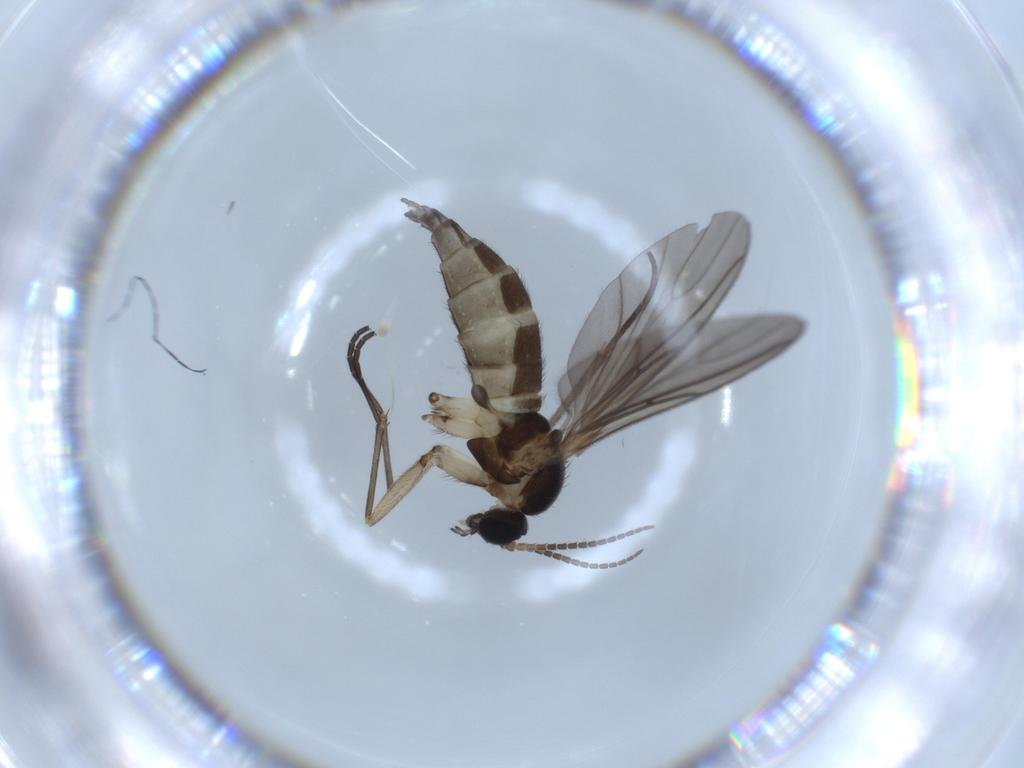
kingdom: Animalia
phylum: Arthropoda
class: Insecta
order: Diptera
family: Sciaridae
